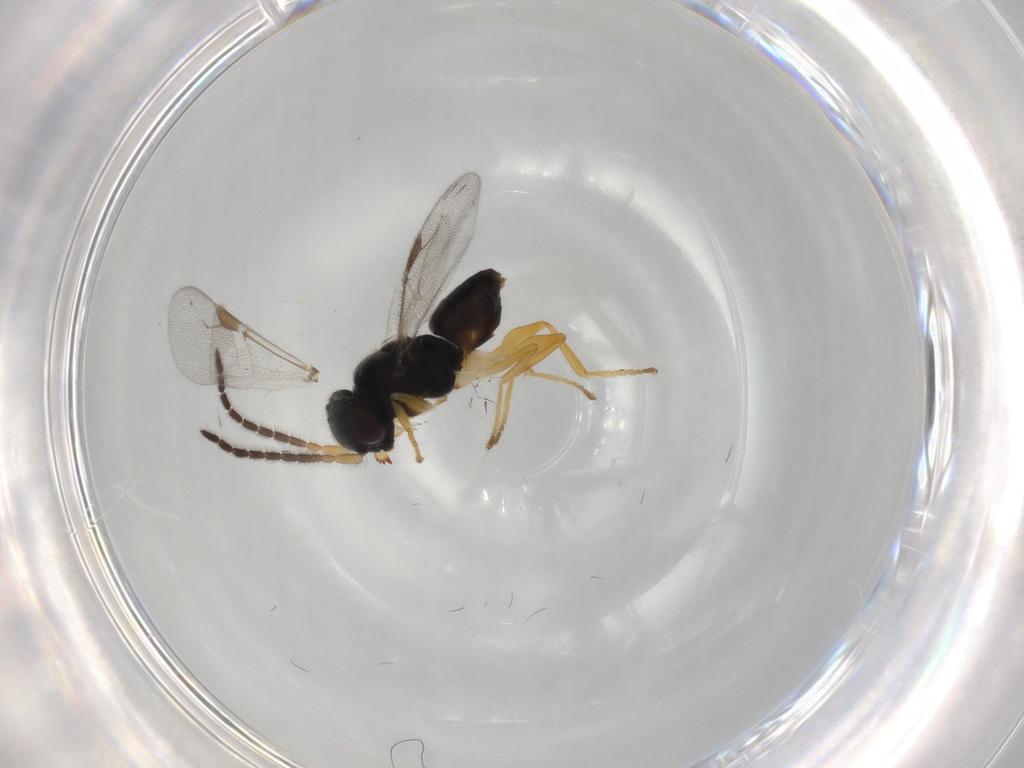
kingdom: Animalia
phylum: Arthropoda
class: Insecta
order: Hymenoptera
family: Dryinidae
